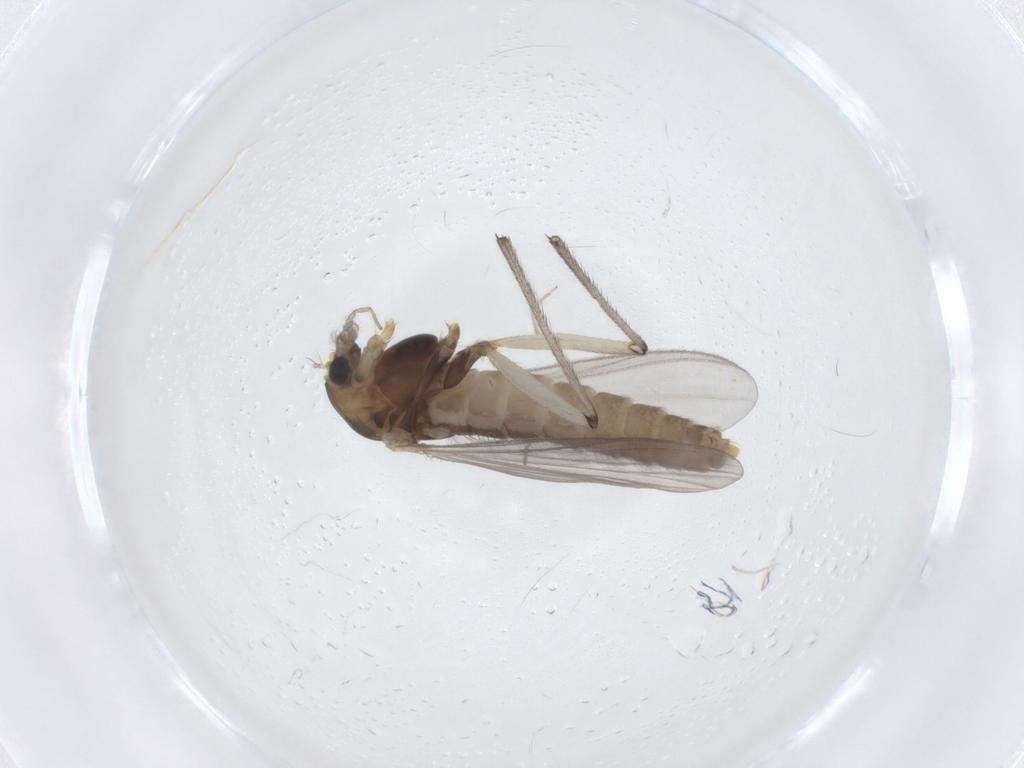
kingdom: Animalia
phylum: Arthropoda
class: Insecta
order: Diptera
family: Chironomidae
